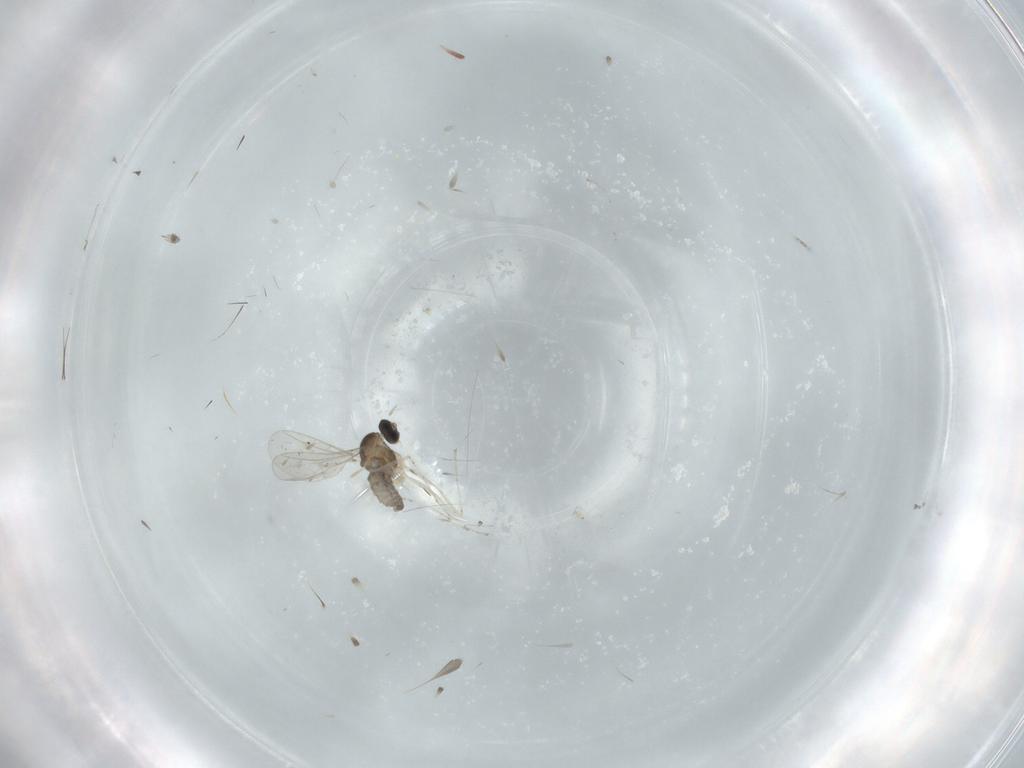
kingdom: Animalia
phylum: Arthropoda
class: Insecta
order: Diptera
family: Cecidomyiidae
